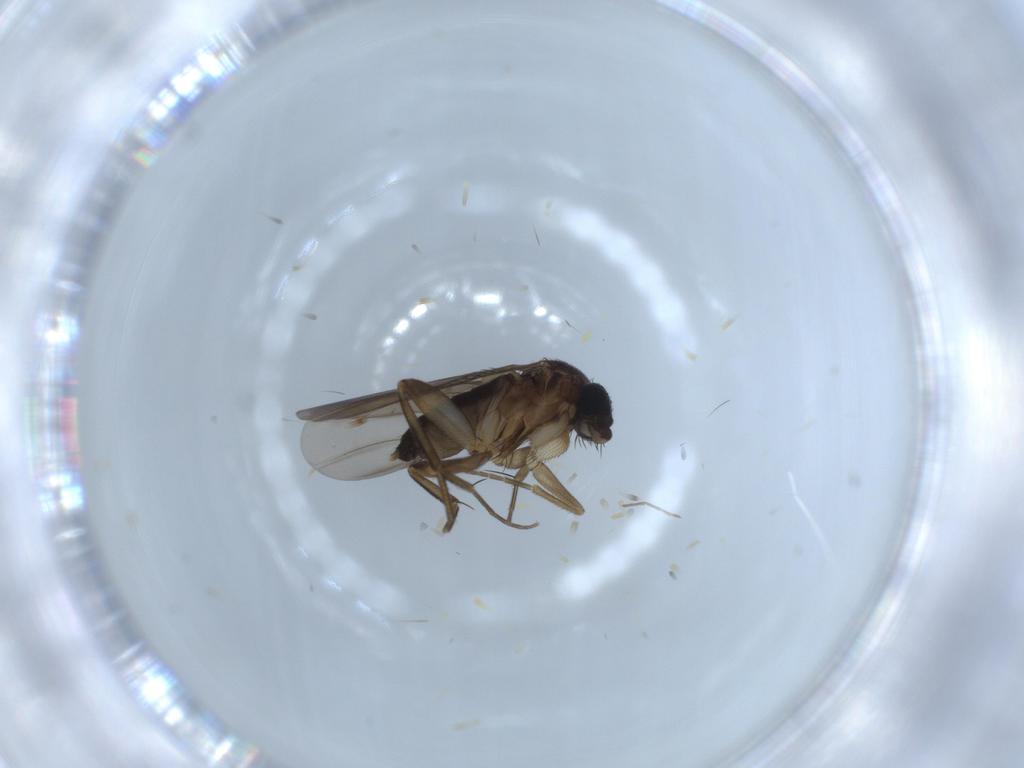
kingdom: Animalia
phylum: Arthropoda
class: Insecta
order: Diptera
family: Phoridae
